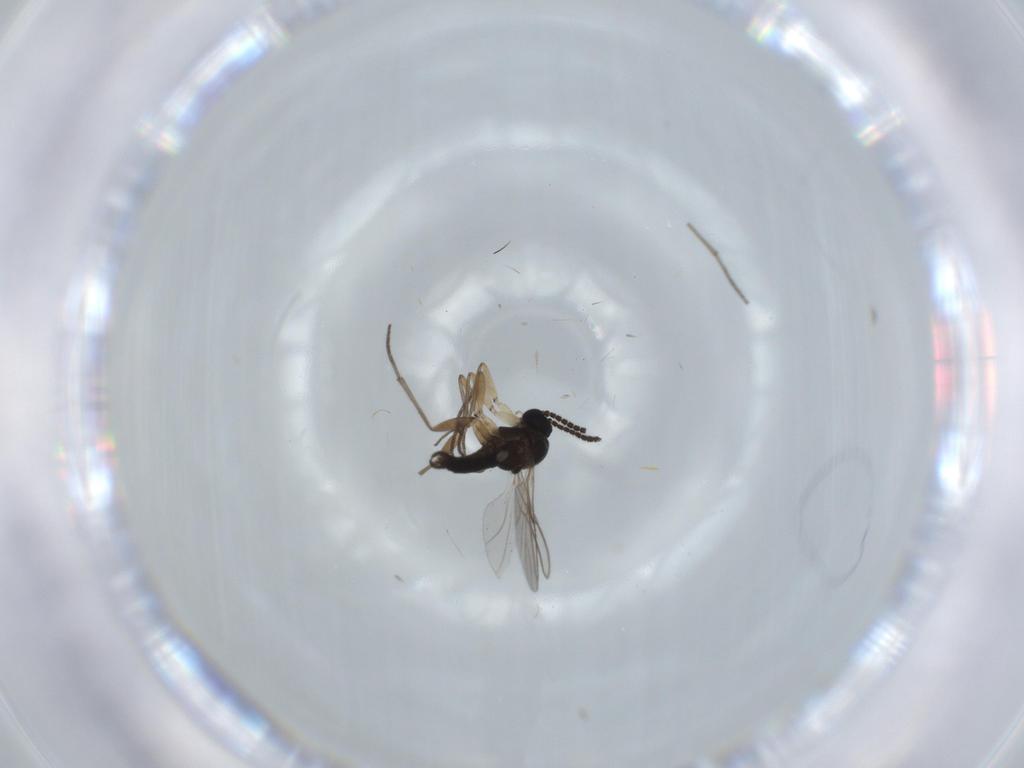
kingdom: Animalia
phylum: Arthropoda
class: Insecta
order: Diptera
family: Sciaridae
